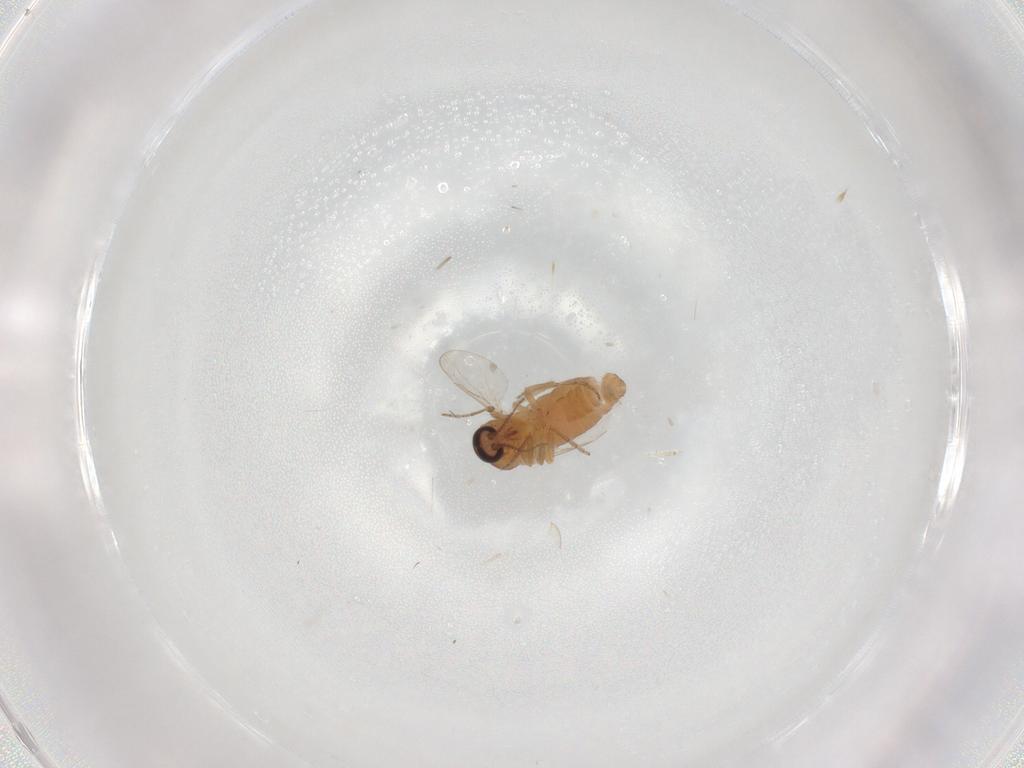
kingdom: Animalia
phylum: Arthropoda
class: Insecta
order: Diptera
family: Ceratopogonidae
